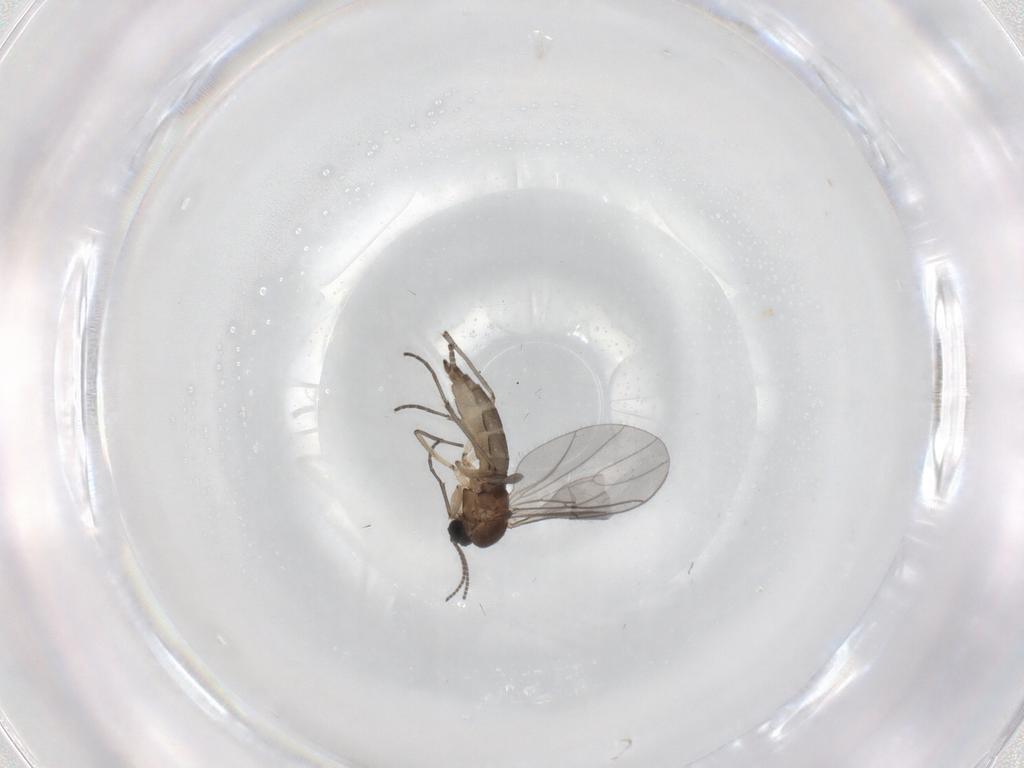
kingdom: Animalia
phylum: Arthropoda
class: Insecta
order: Diptera
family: Sciaridae
